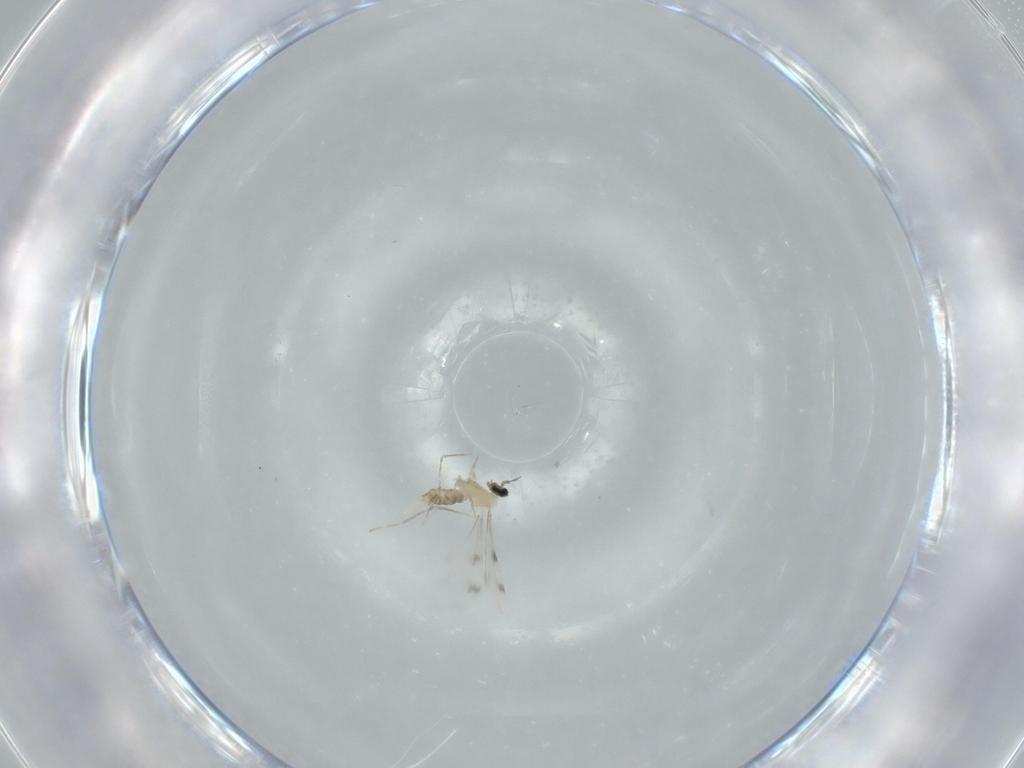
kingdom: Animalia
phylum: Arthropoda
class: Insecta
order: Diptera
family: Cecidomyiidae
